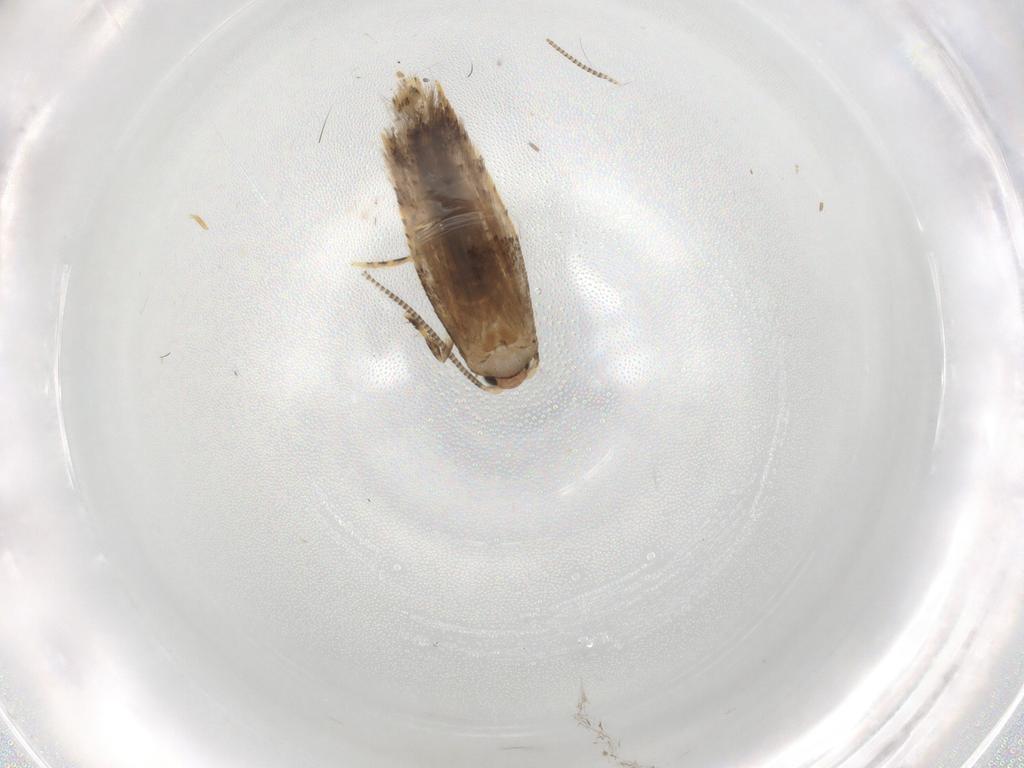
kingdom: Animalia
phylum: Arthropoda
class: Insecta
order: Lepidoptera
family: Tineidae
